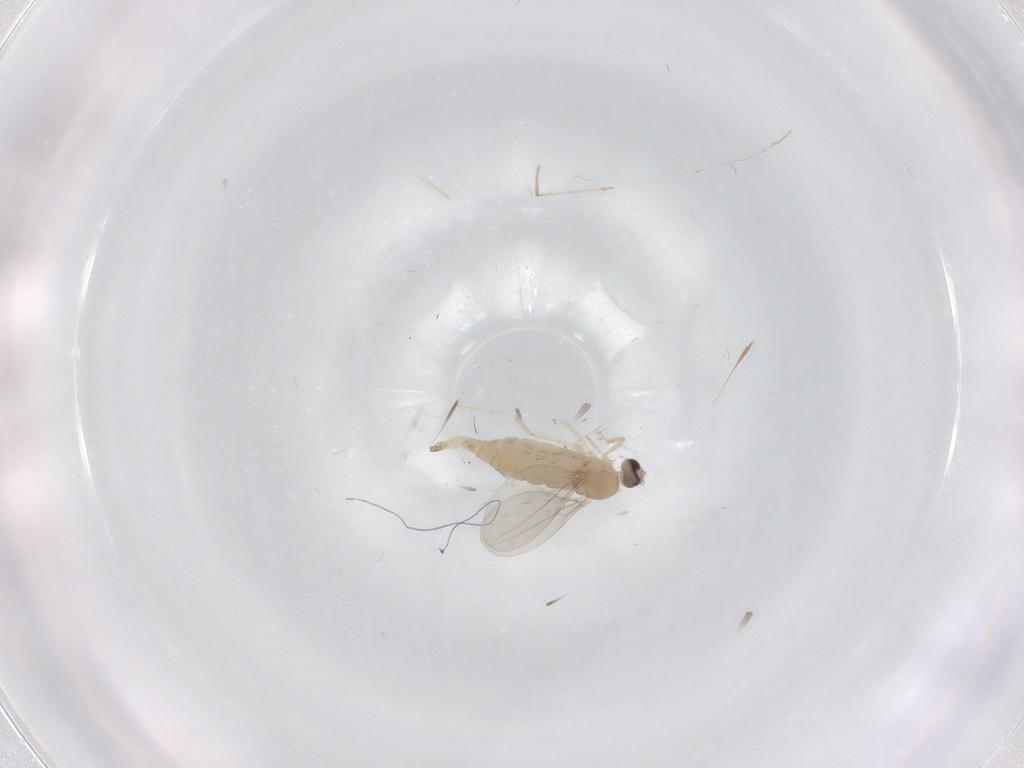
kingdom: Animalia
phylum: Arthropoda
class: Insecta
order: Diptera
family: Cecidomyiidae
